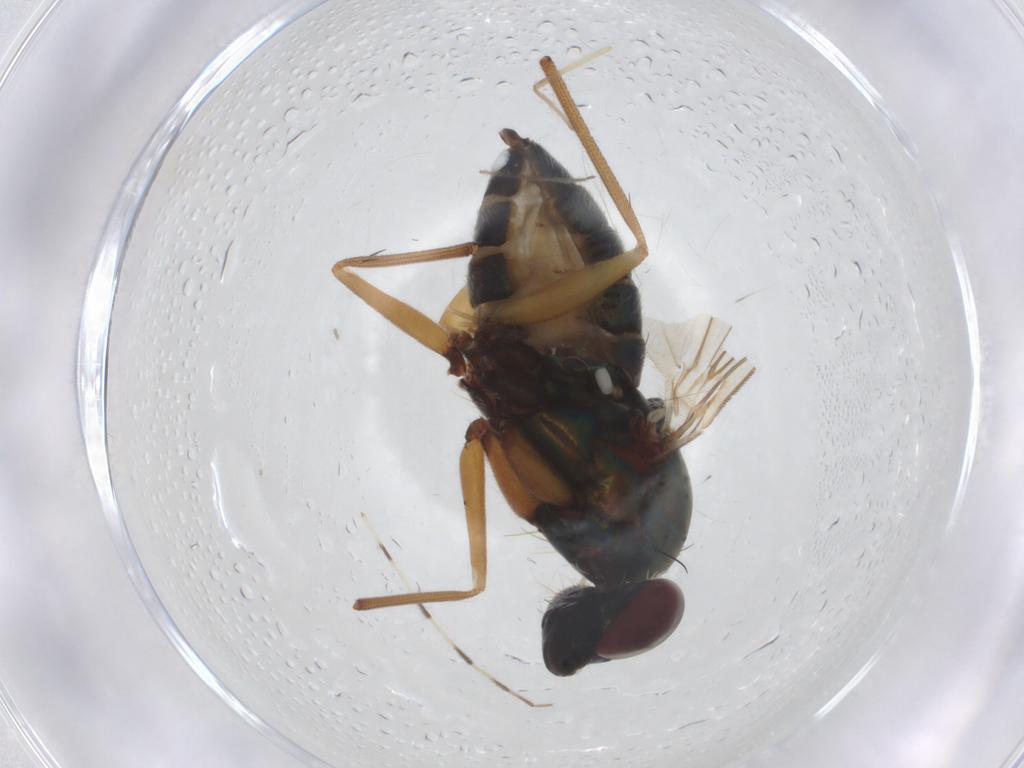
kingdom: Animalia
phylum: Arthropoda
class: Insecta
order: Diptera
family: Chironomidae
